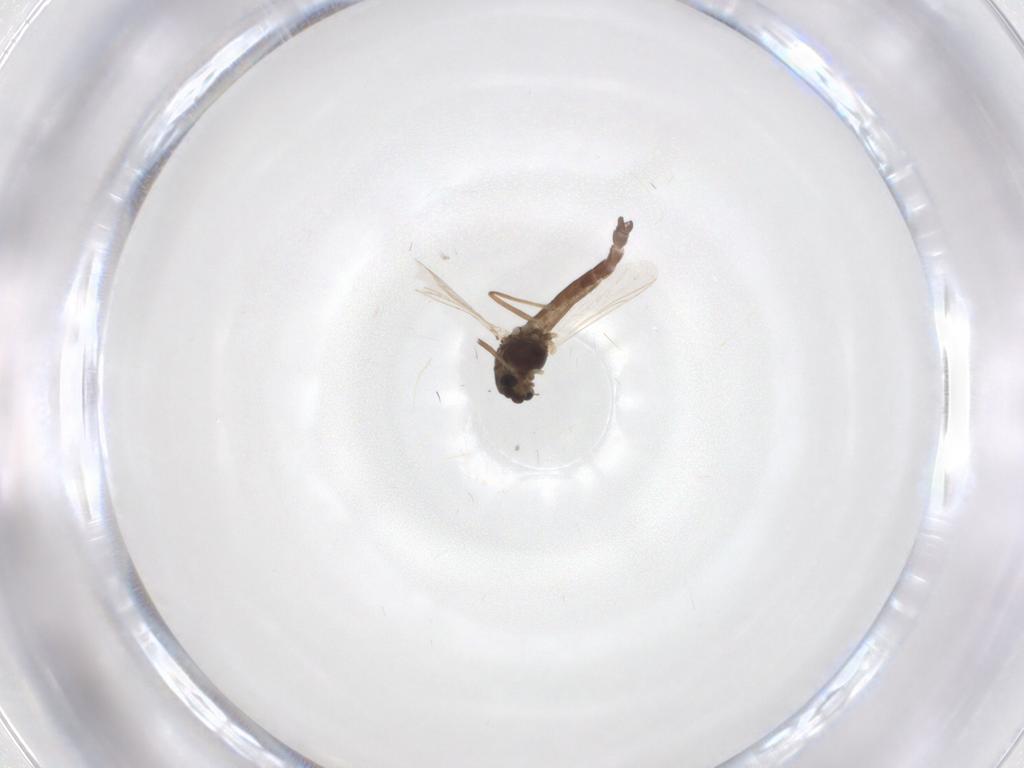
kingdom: Animalia
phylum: Arthropoda
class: Insecta
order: Diptera
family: Chironomidae
